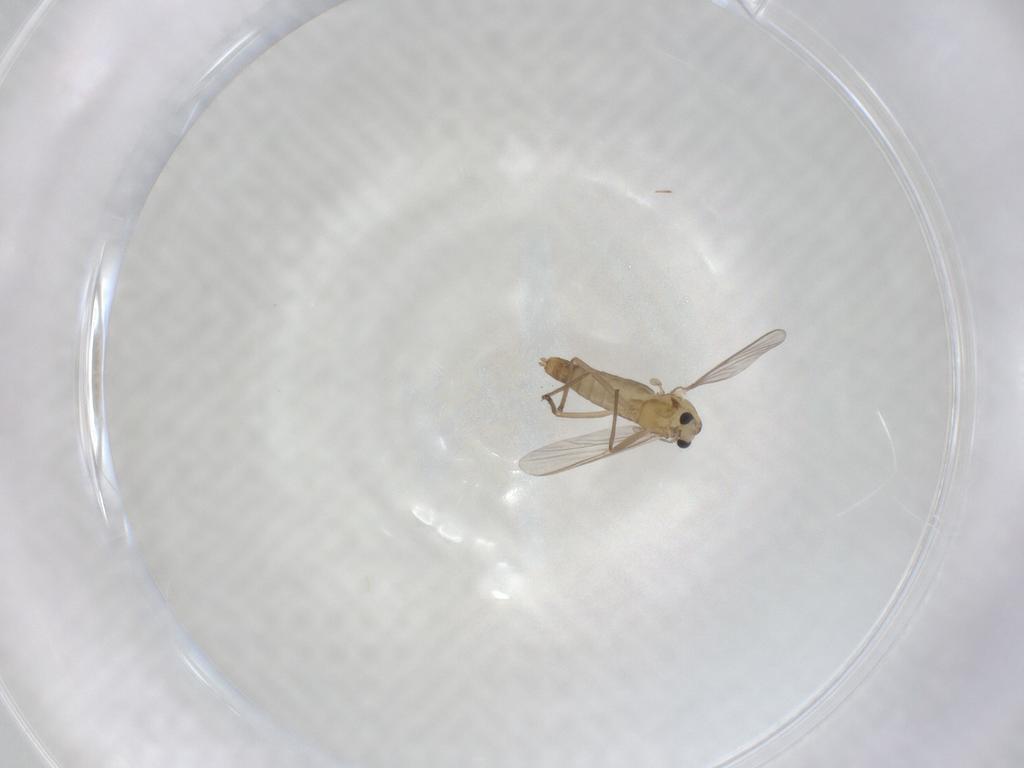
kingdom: Animalia
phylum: Arthropoda
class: Insecta
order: Diptera
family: Chironomidae
